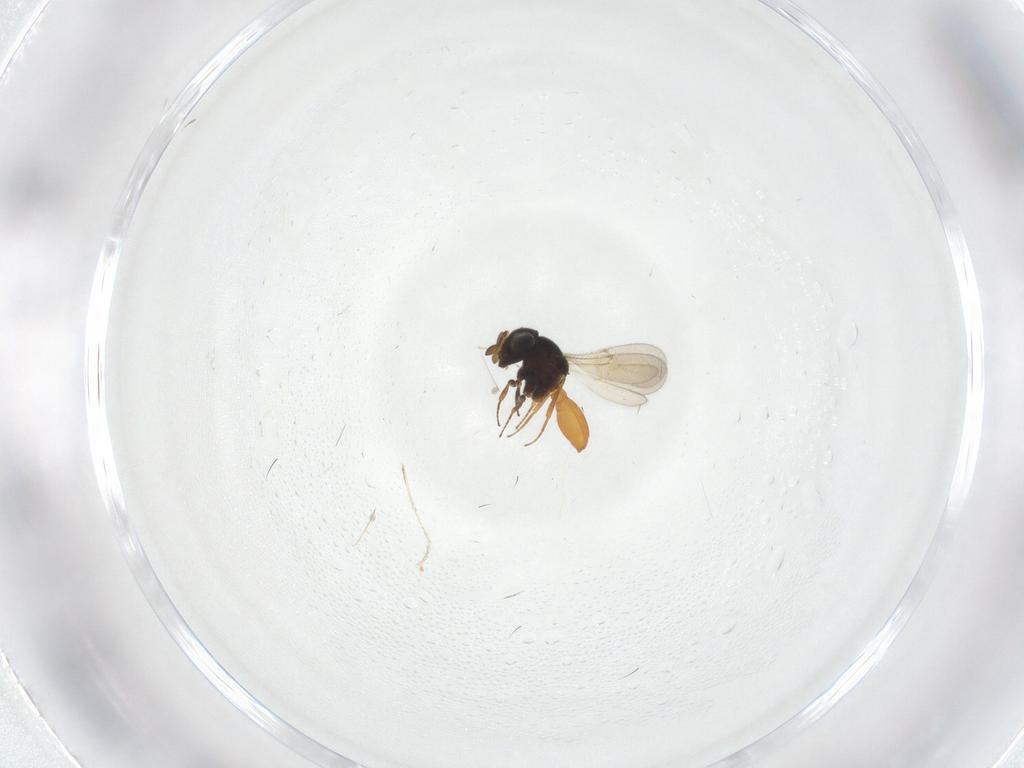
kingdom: Animalia
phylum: Arthropoda
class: Insecta
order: Hymenoptera
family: Scelionidae
